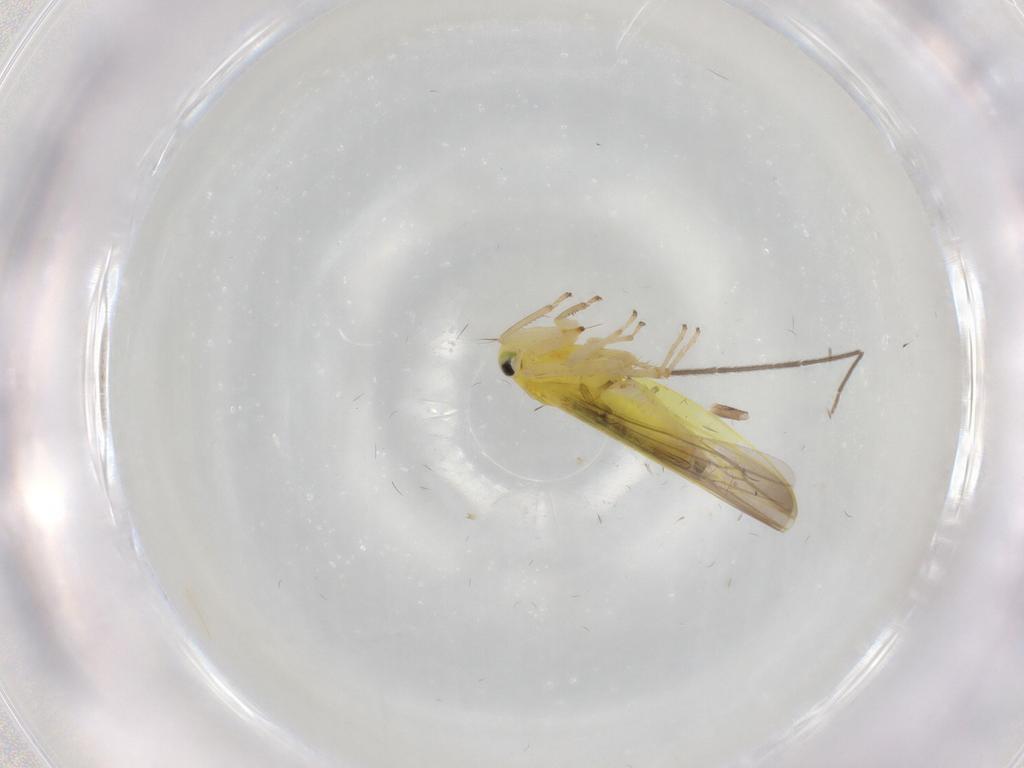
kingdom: Animalia
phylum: Arthropoda
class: Insecta
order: Hemiptera
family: Cicadellidae
